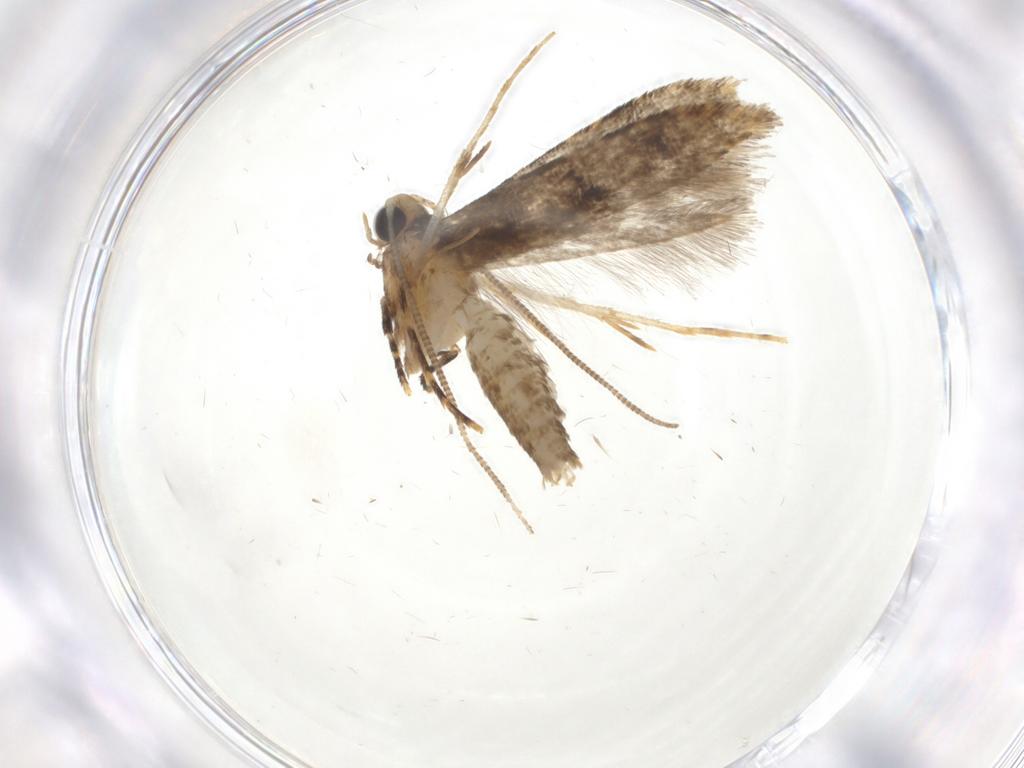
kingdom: Animalia
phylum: Arthropoda
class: Insecta
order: Lepidoptera
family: Tineidae
